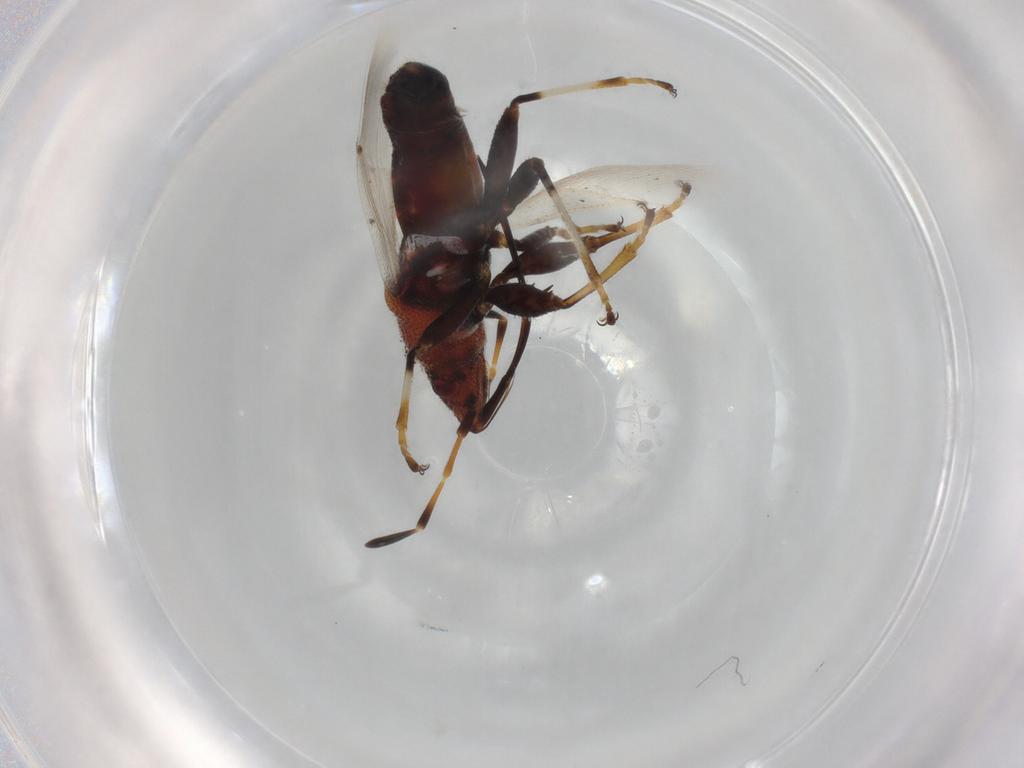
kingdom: Animalia
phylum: Arthropoda
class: Insecta
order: Hemiptera
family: Oxycarenidae
